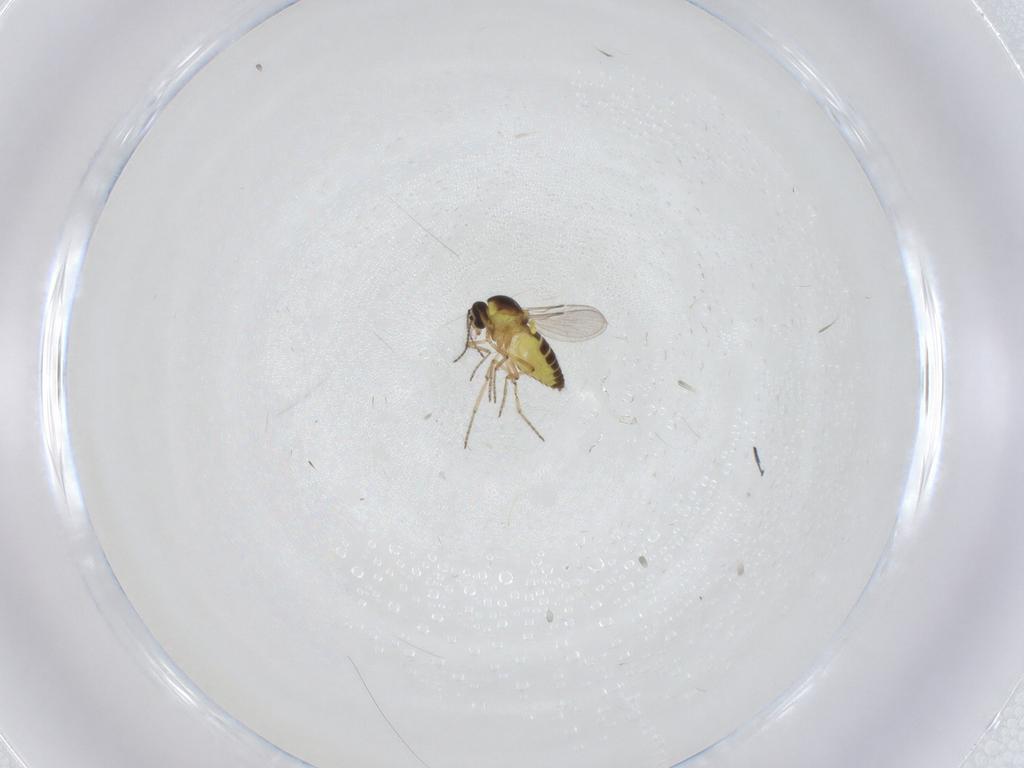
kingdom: Animalia
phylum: Arthropoda
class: Insecta
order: Diptera
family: Ceratopogonidae
